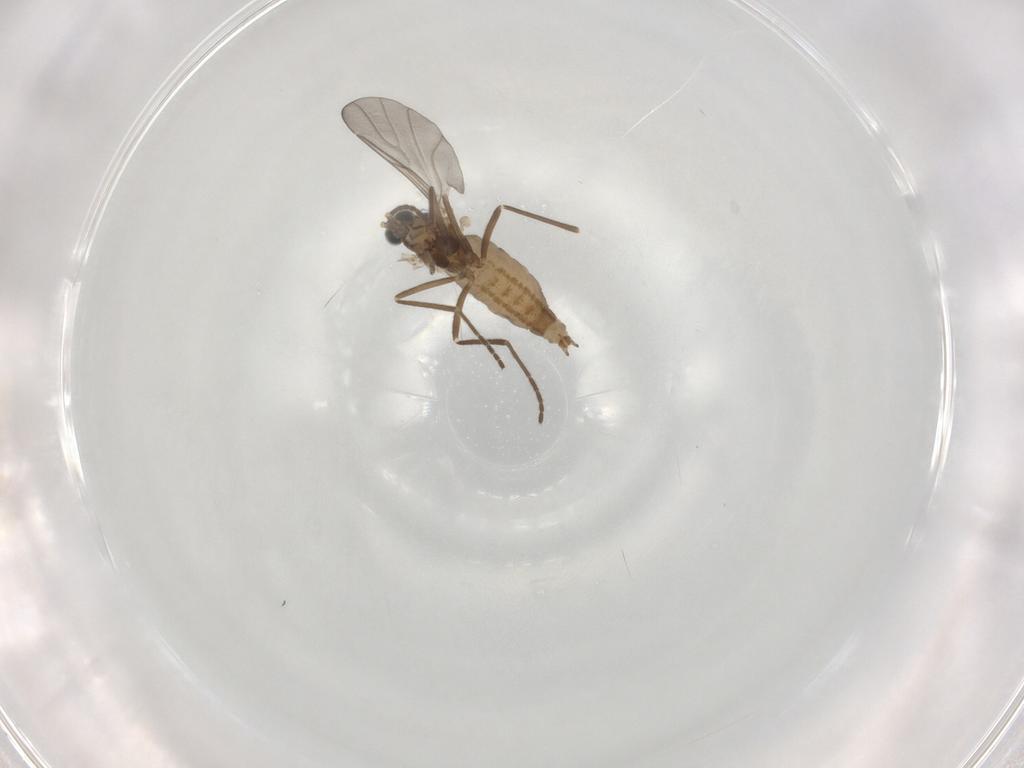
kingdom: Animalia
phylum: Arthropoda
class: Insecta
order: Diptera
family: Cecidomyiidae
